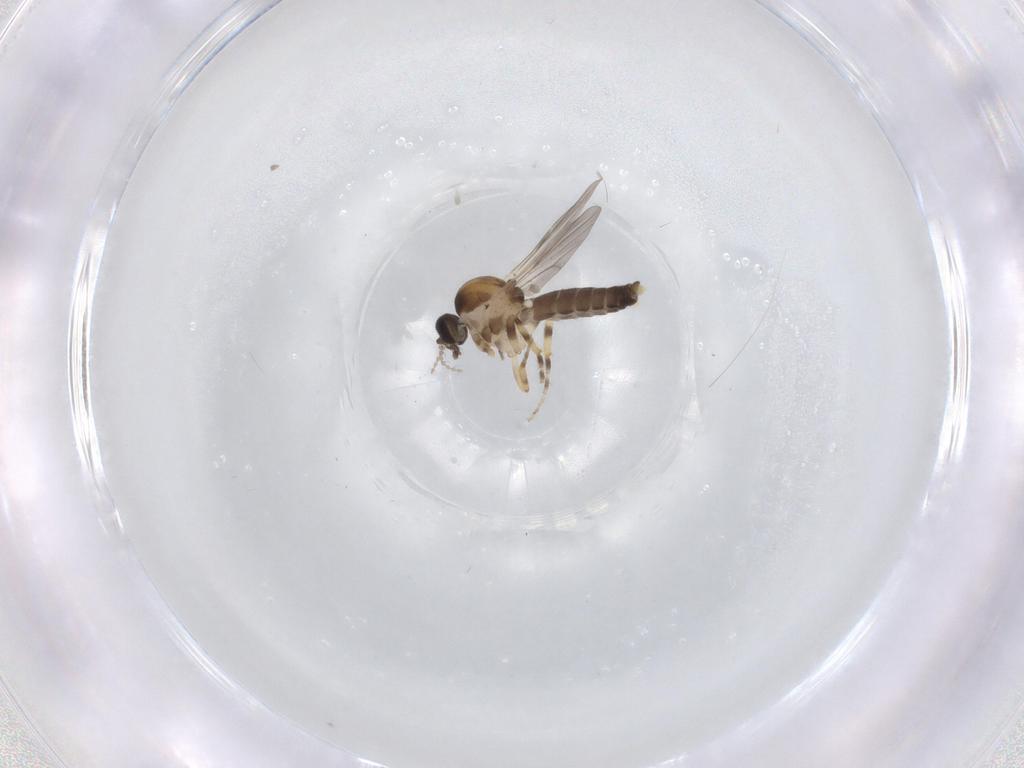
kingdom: Animalia
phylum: Arthropoda
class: Insecta
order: Diptera
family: Ceratopogonidae
